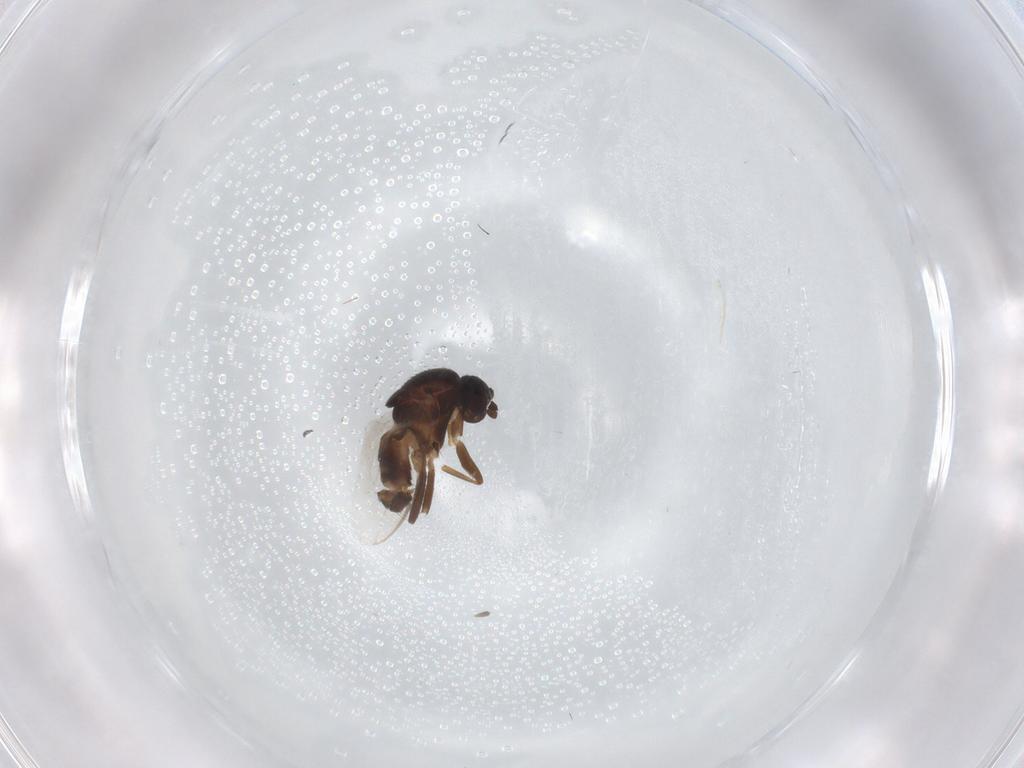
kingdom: Animalia
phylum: Arthropoda
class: Insecta
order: Diptera
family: Sphaeroceridae
